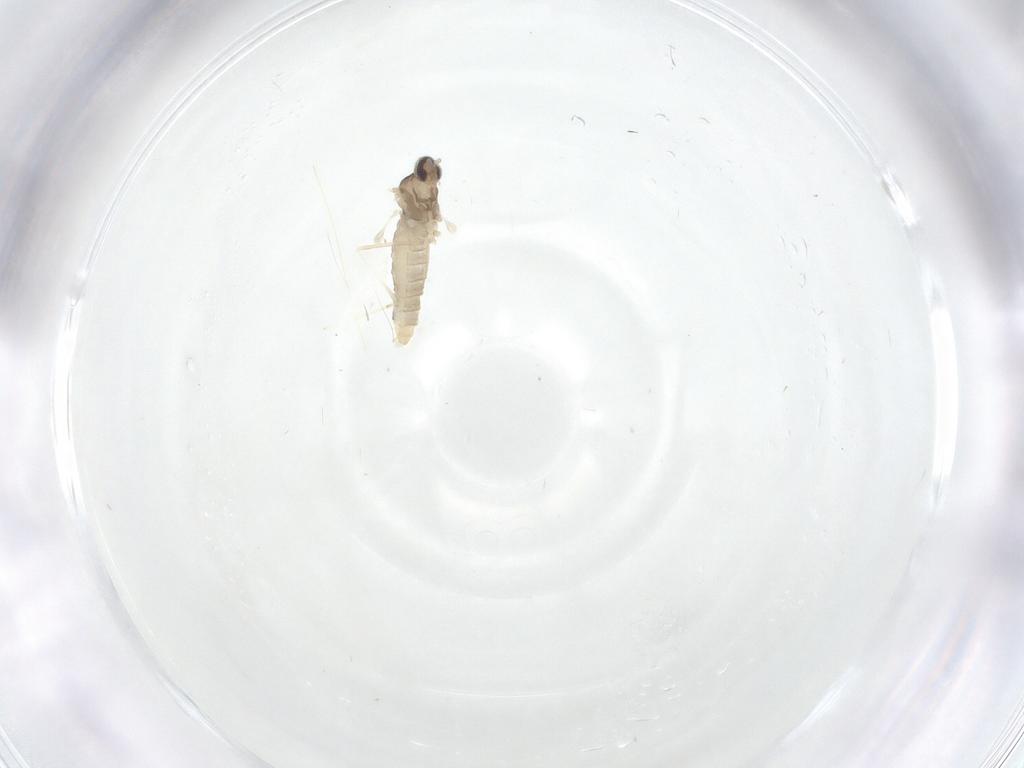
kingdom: Animalia
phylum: Arthropoda
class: Insecta
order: Diptera
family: Cecidomyiidae
